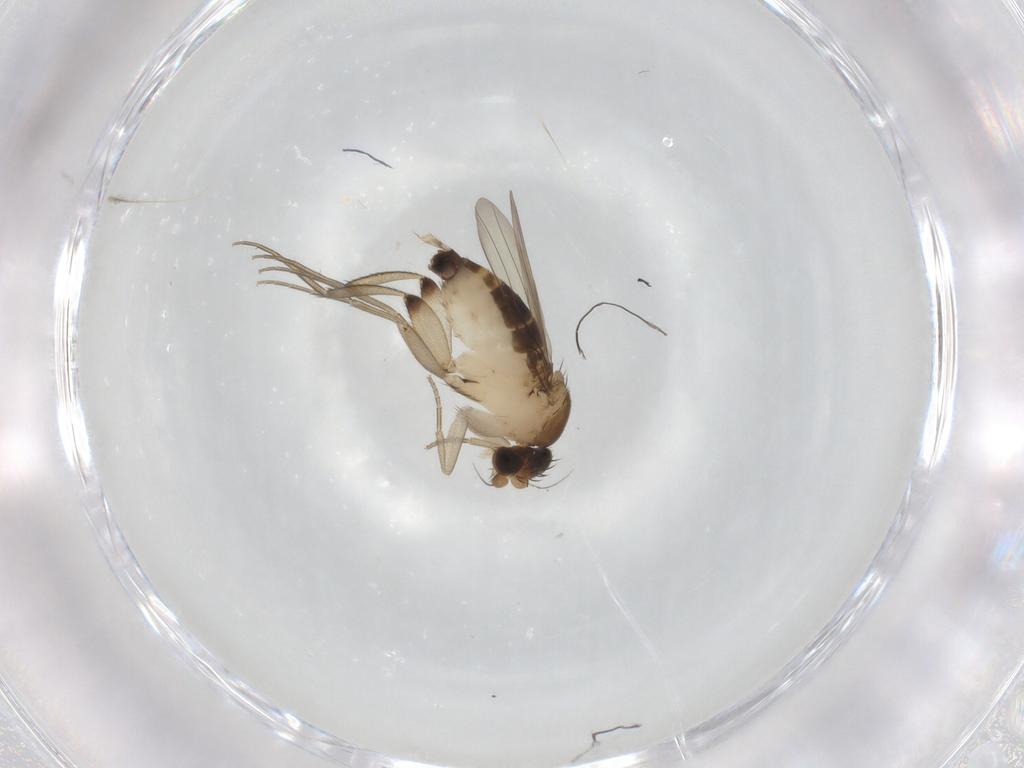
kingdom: Animalia
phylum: Arthropoda
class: Insecta
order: Diptera
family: Phoridae
